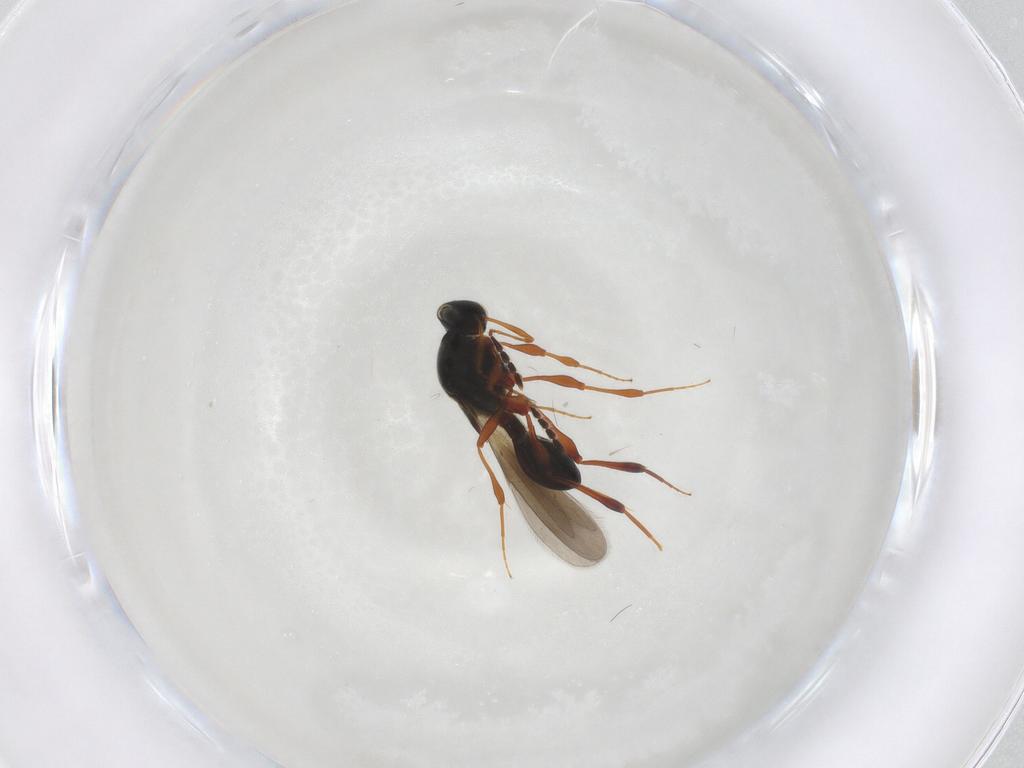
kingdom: Animalia
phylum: Arthropoda
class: Insecta
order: Hymenoptera
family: Platygastridae
